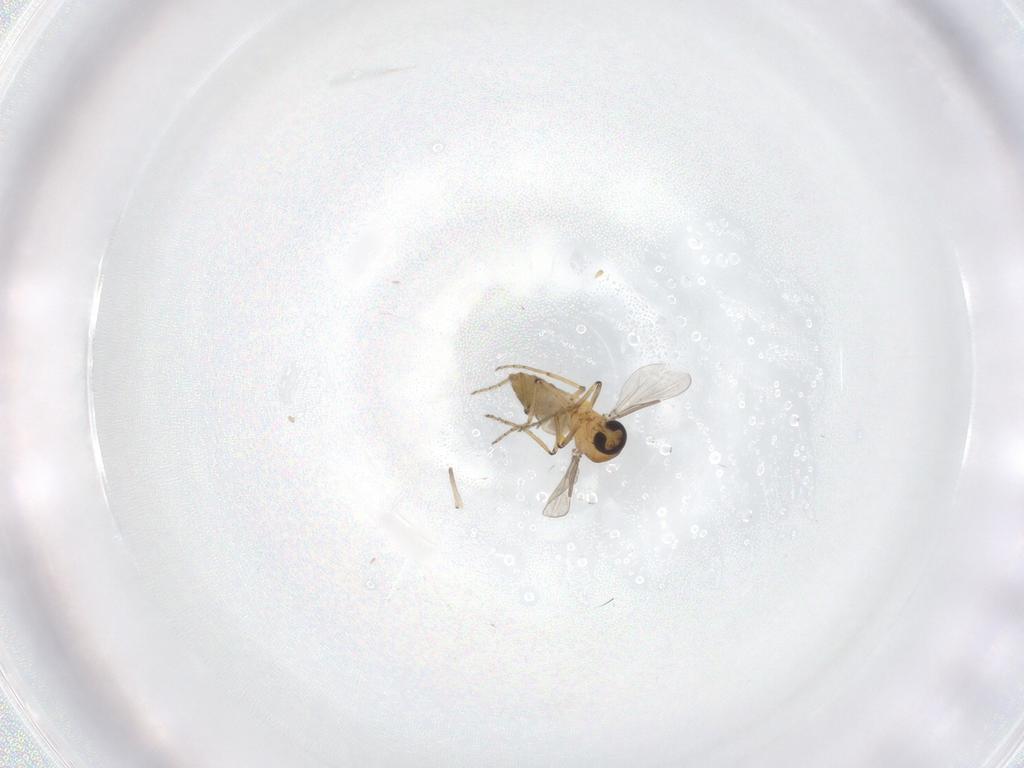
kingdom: Animalia
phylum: Arthropoda
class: Insecta
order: Diptera
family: Ceratopogonidae
